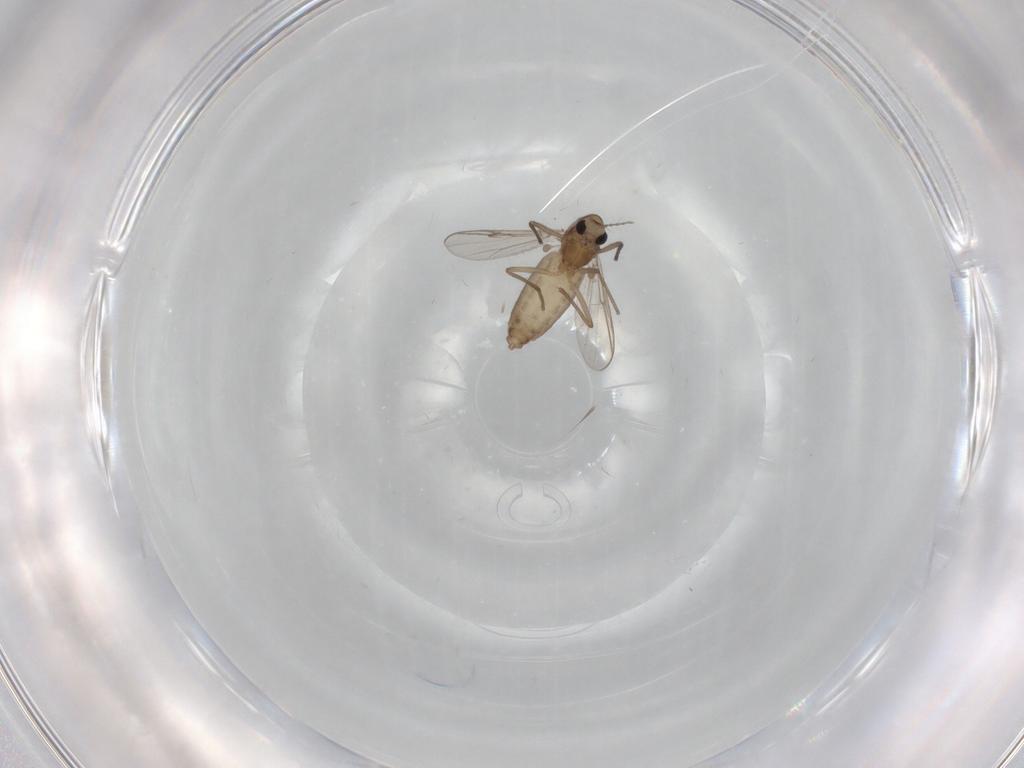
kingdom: Animalia
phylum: Arthropoda
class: Insecta
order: Diptera
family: Chironomidae
